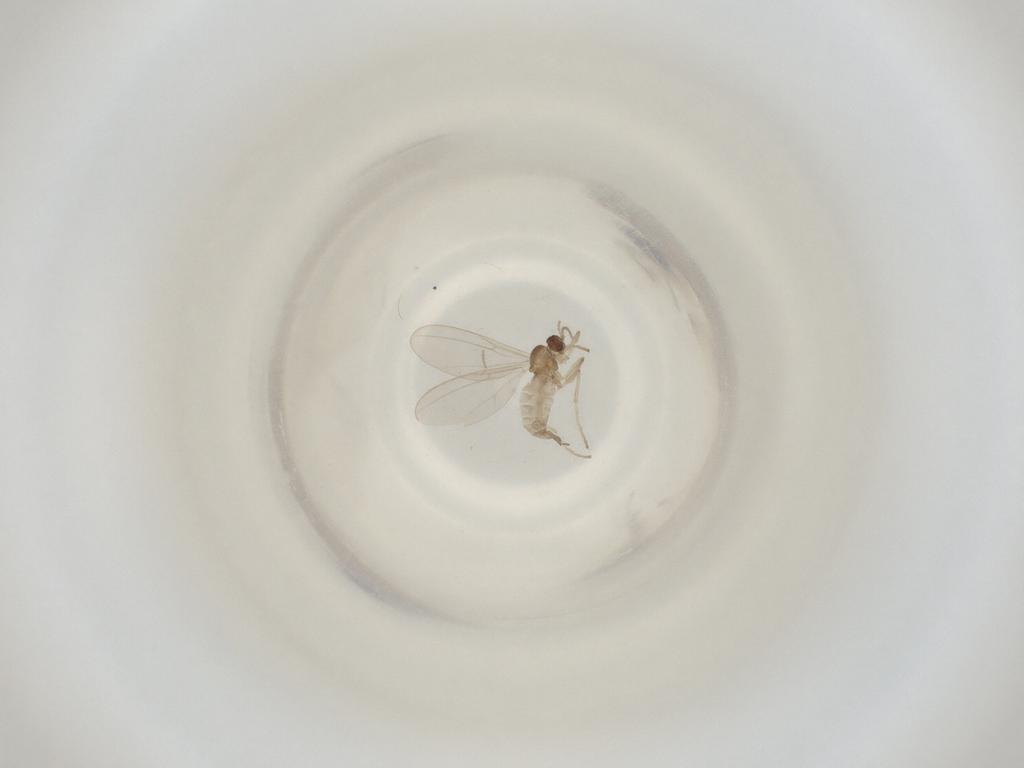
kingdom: Animalia
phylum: Arthropoda
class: Insecta
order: Diptera
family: Cecidomyiidae
